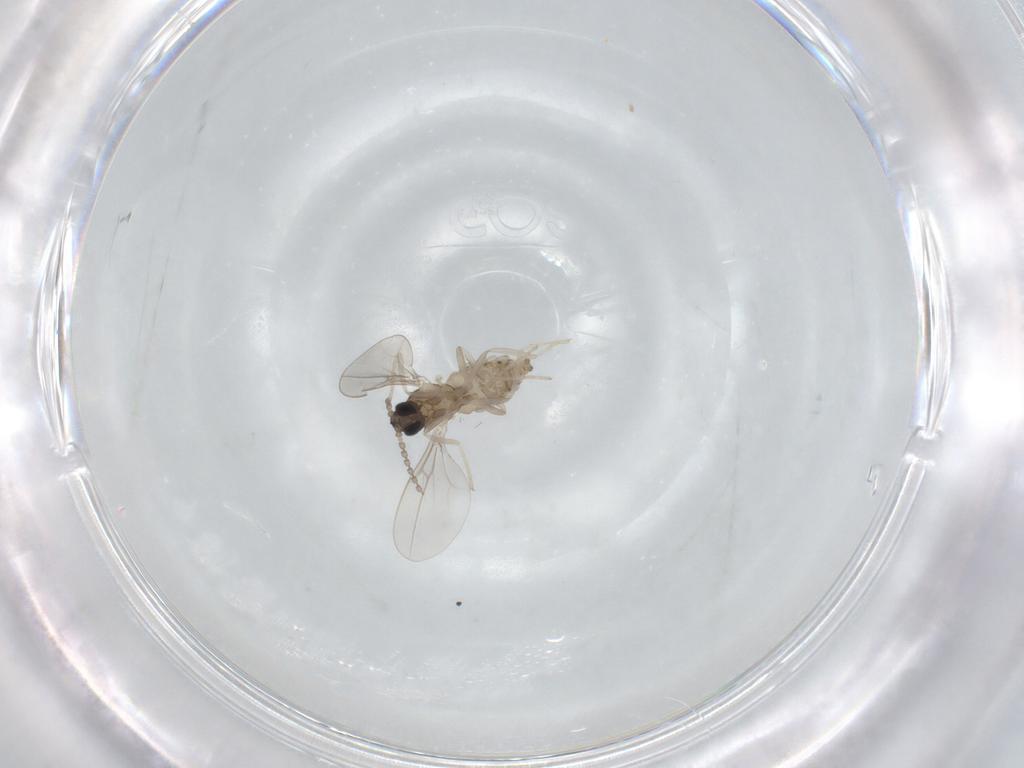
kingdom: Animalia
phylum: Arthropoda
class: Insecta
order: Diptera
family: Cecidomyiidae
